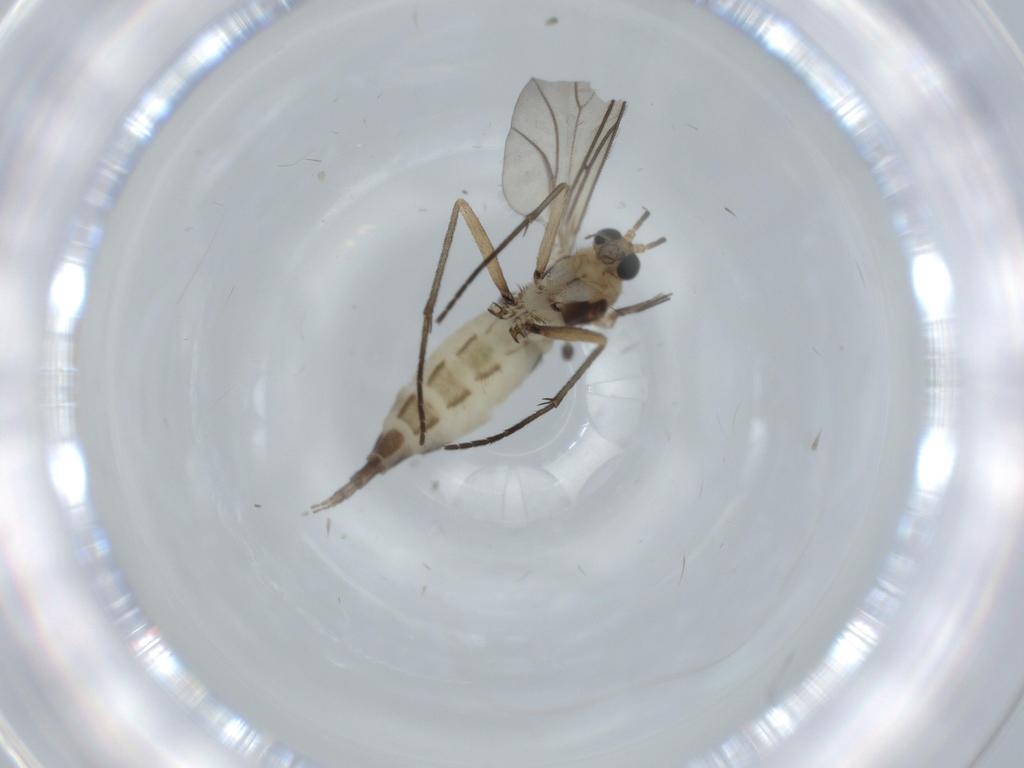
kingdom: Animalia
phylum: Arthropoda
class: Insecta
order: Diptera
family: Sciaridae
